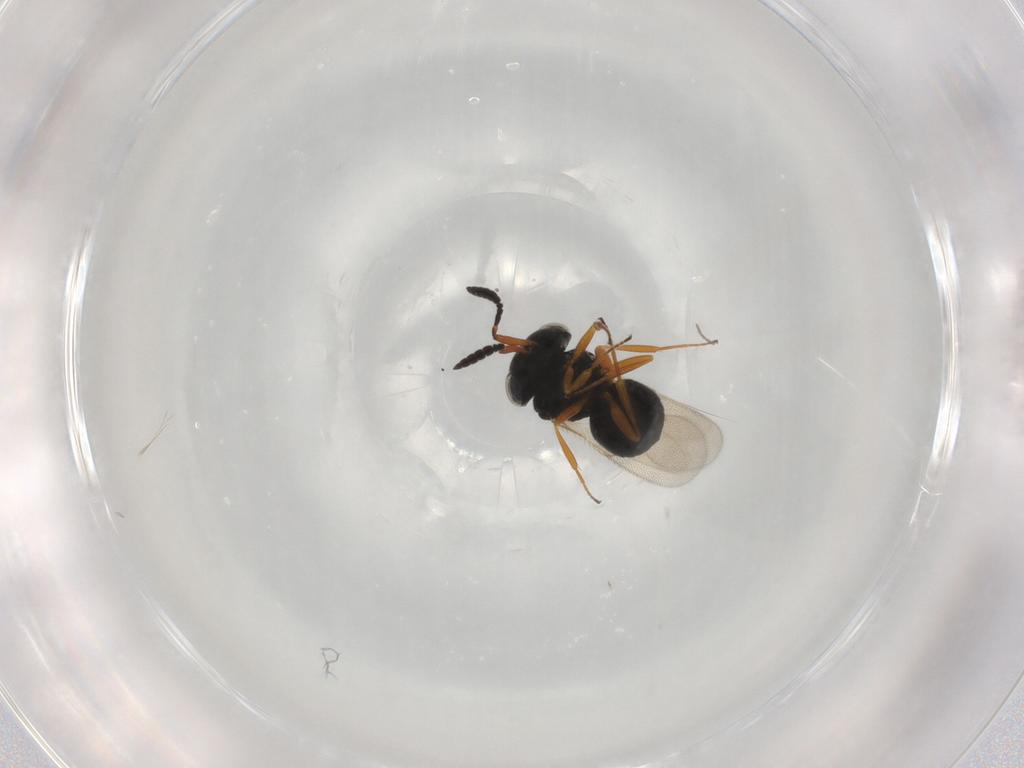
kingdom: Animalia
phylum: Arthropoda
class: Insecta
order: Hymenoptera
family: Scelionidae
